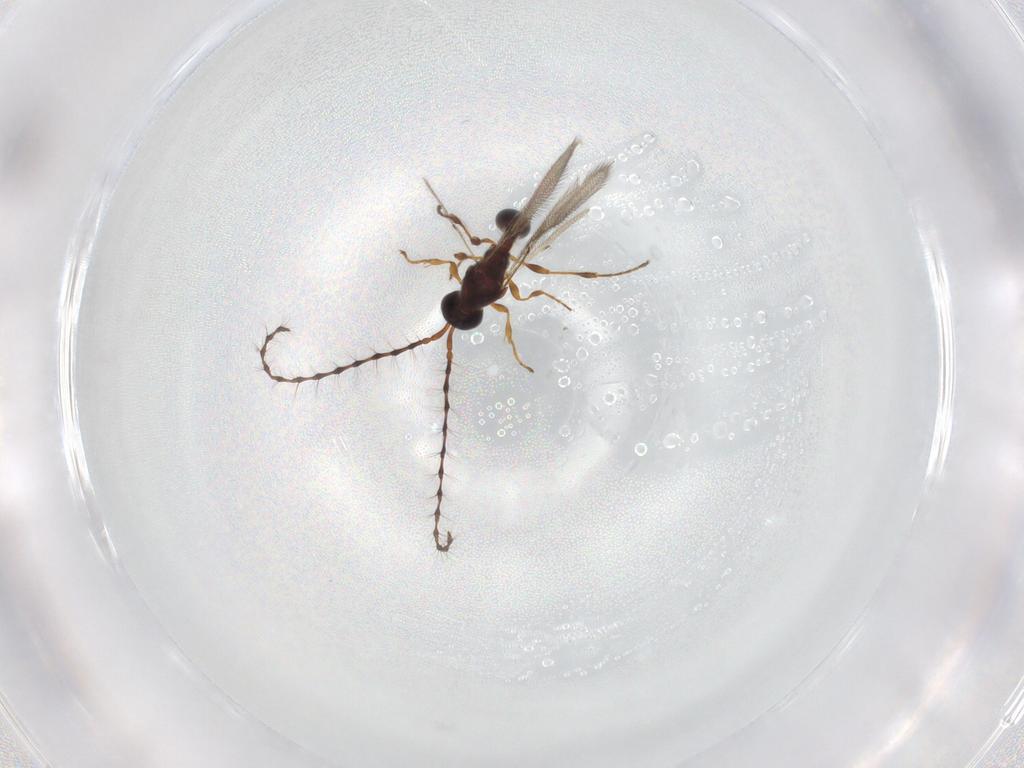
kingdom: Animalia
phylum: Arthropoda
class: Insecta
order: Hymenoptera
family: Diapriidae
